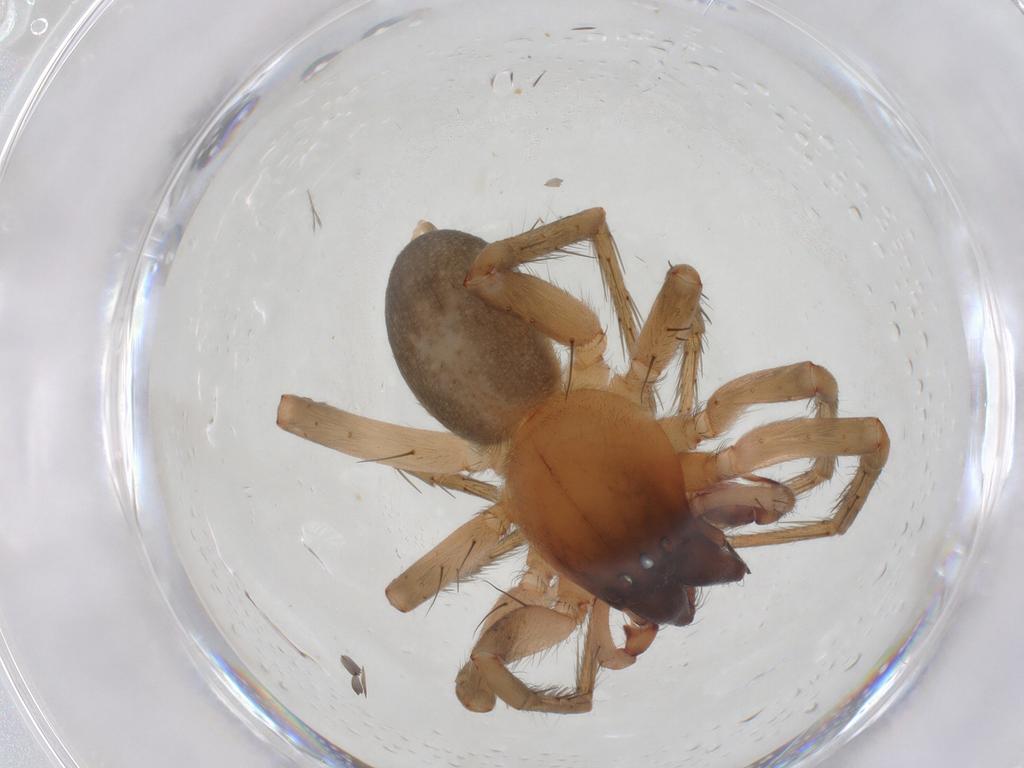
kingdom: Animalia
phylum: Arthropoda
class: Arachnida
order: Araneae
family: Amaurobiidae
